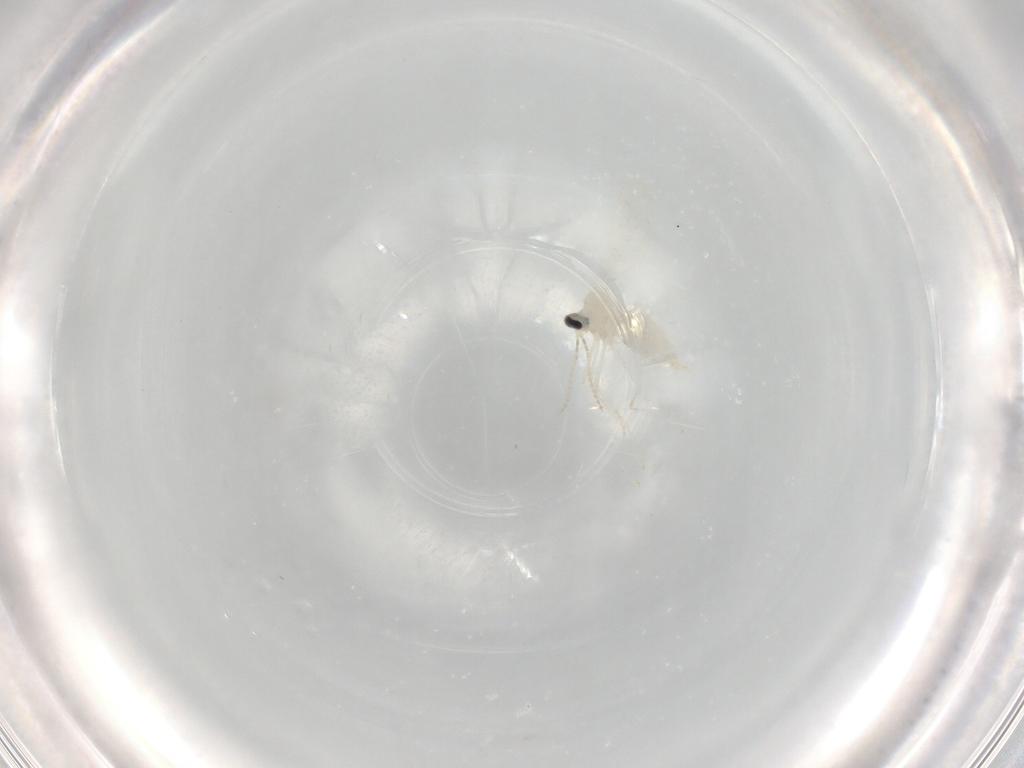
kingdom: Animalia
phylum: Arthropoda
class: Insecta
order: Diptera
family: Cecidomyiidae
